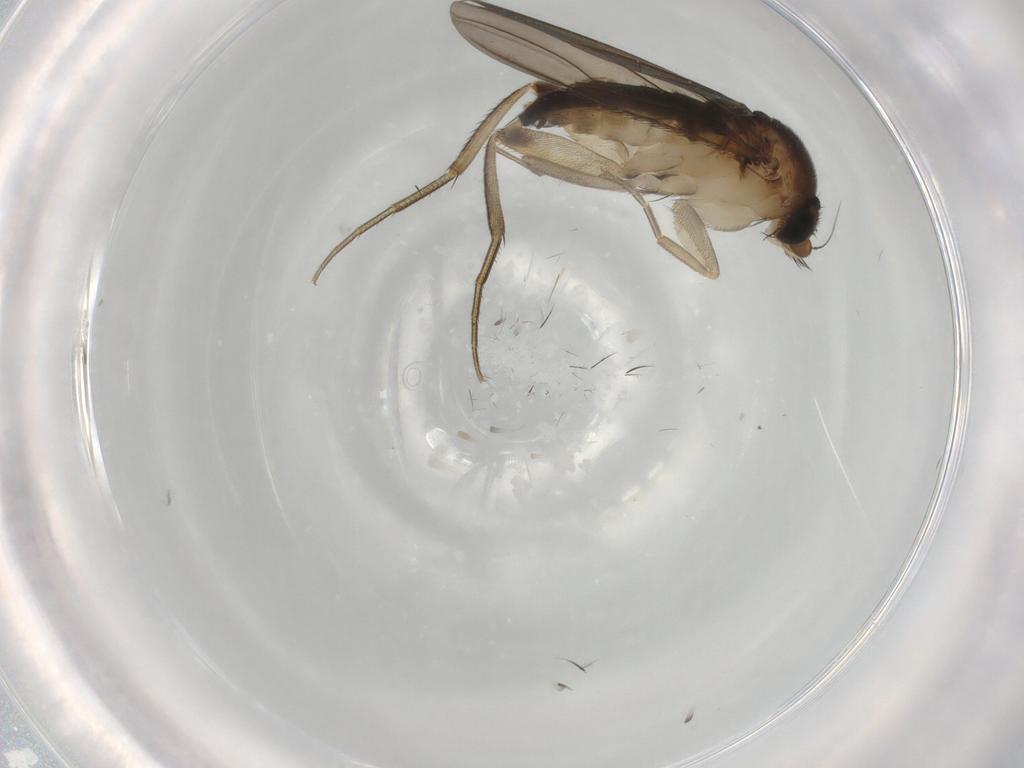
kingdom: Animalia
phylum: Arthropoda
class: Insecta
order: Diptera
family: Phoridae
